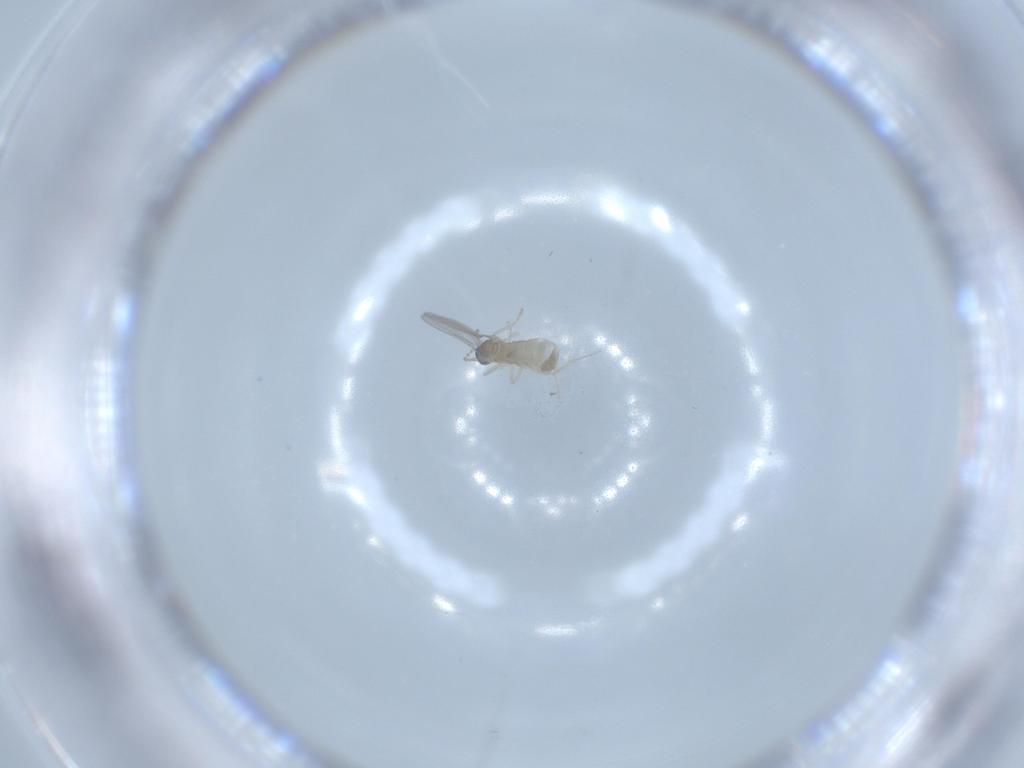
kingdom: Animalia
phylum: Arthropoda
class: Insecta
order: Diptera
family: Cecidomyiidae
